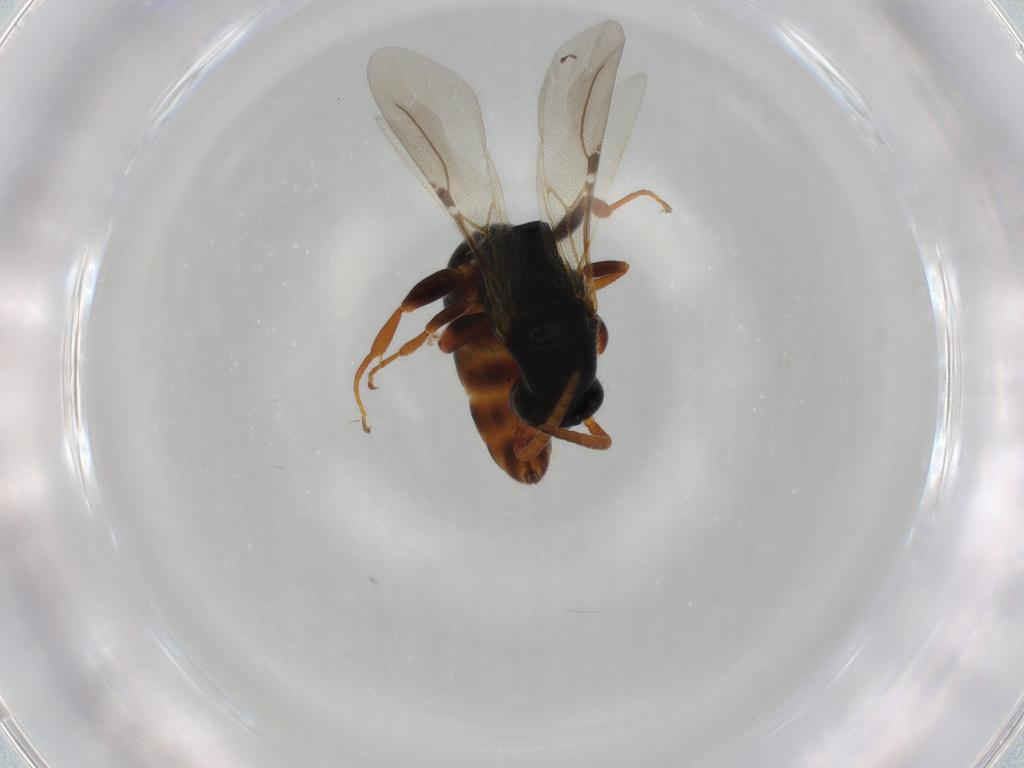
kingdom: Animalia
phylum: Arthropoda
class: Insecta
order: Hymenoptera
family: Bethylidae
